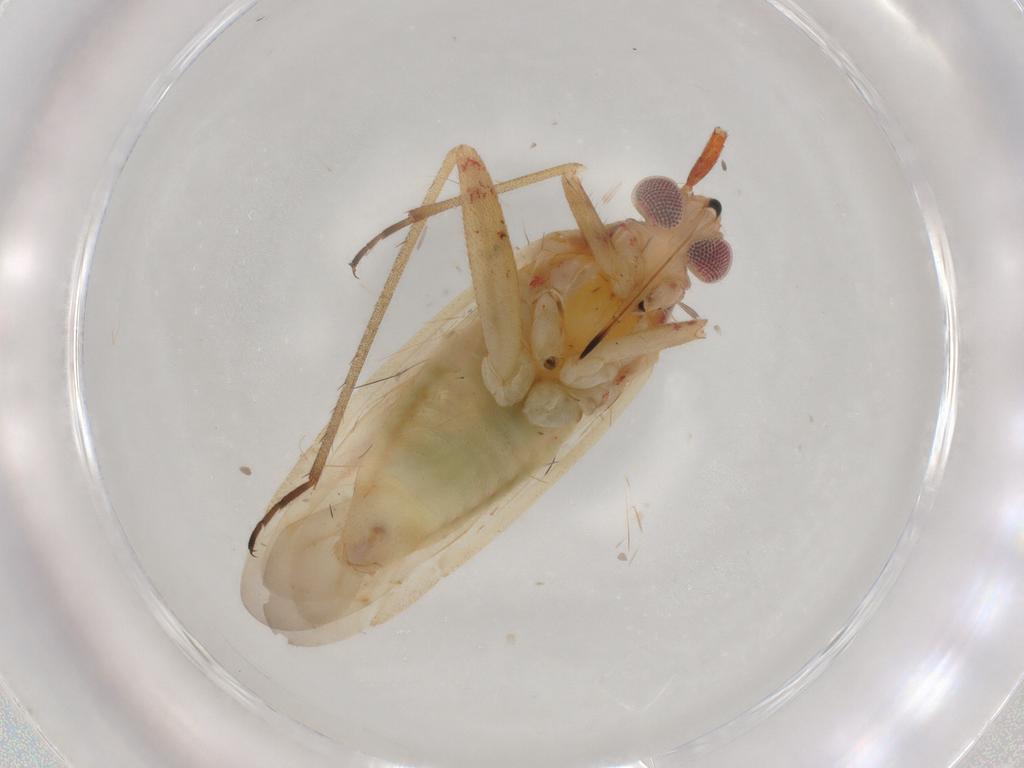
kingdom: Animalia
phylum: Arthropoda
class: Insecta
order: Hemiptera
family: Miridae
